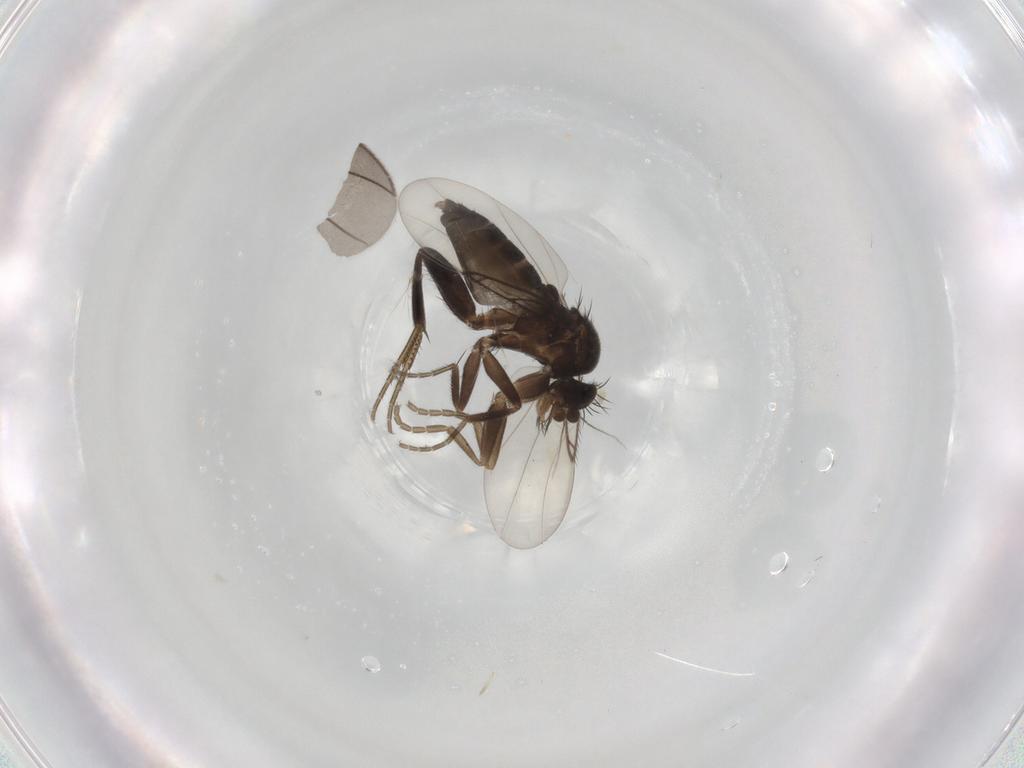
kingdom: Animalia
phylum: Arthropoda
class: Insecta
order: Diptera
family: Phoridae
